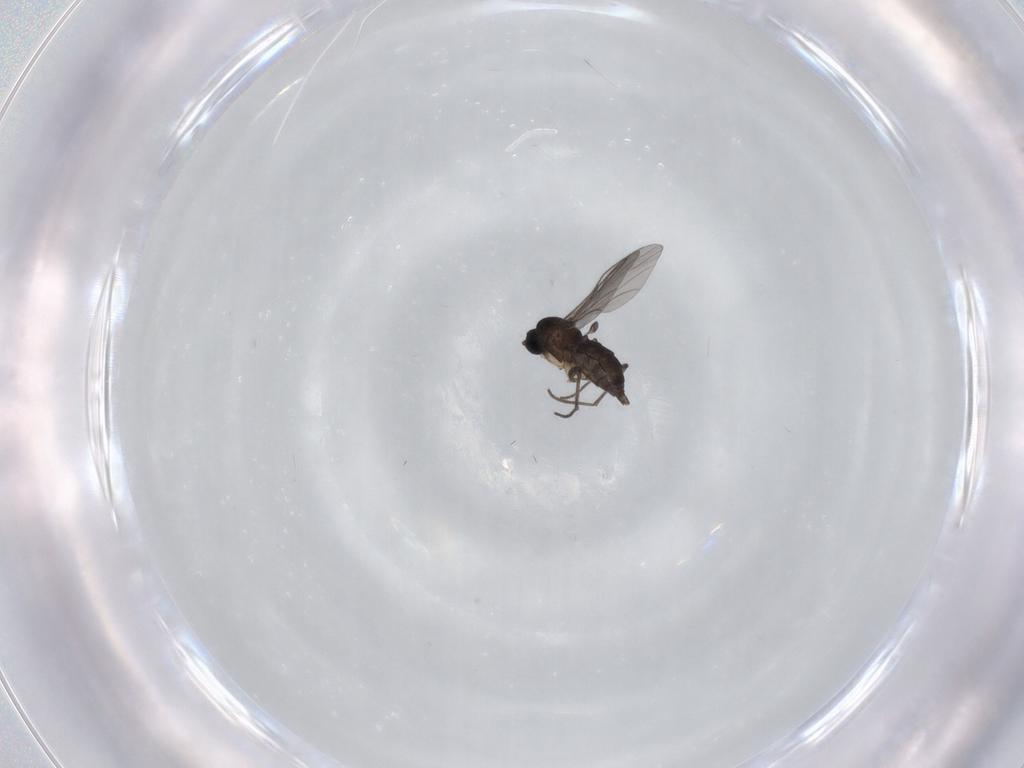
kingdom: Animalia
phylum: Arthropoda
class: Insecta
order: Diptera
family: Sciaridae
